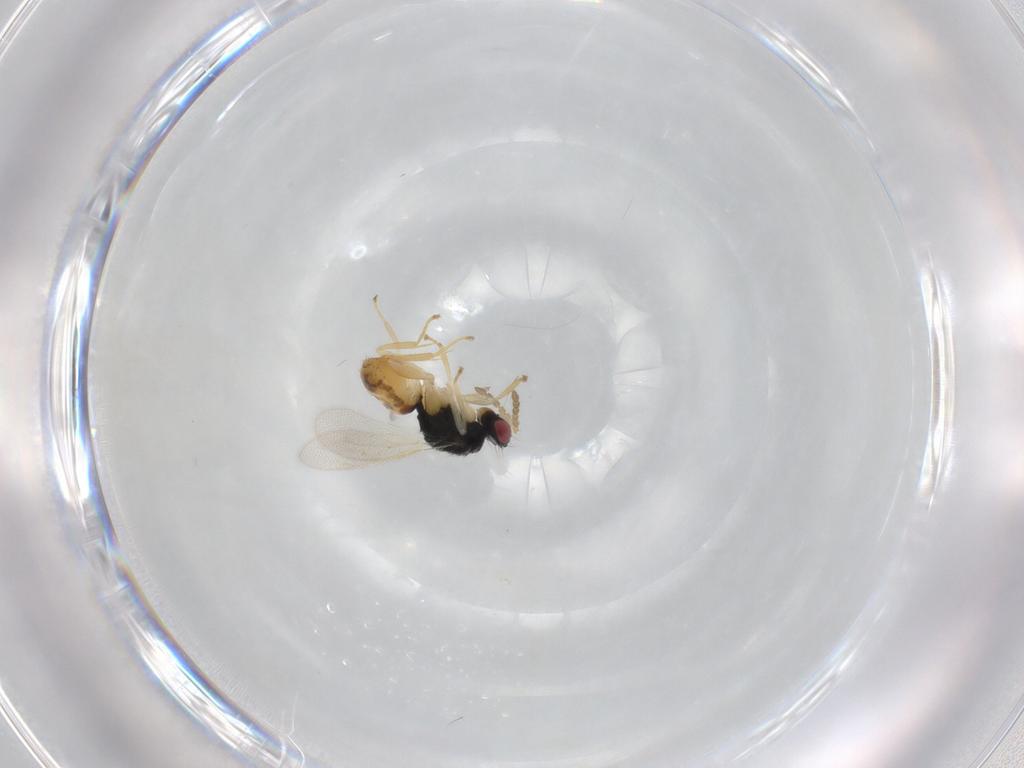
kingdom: Animalia
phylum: Arthropoda
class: Insecta
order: Hymenoptera
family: Eulophidae
